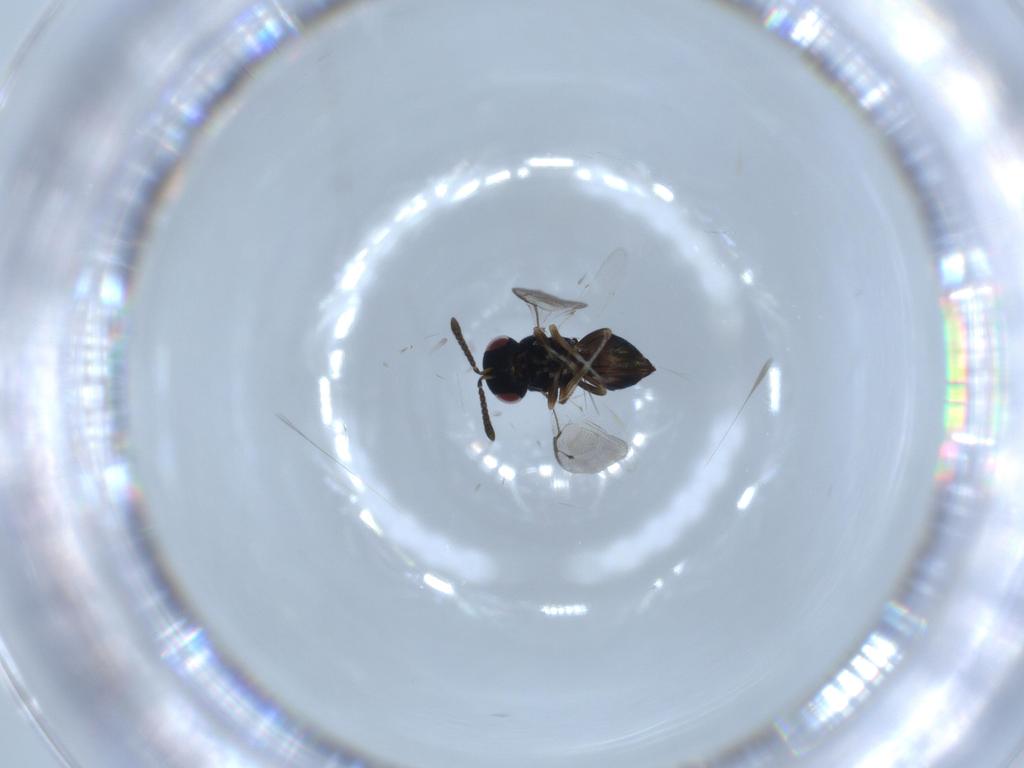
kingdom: Animalia
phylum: Arthropoda
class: Insecta
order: Hymenoptera
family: Pteromalidae
